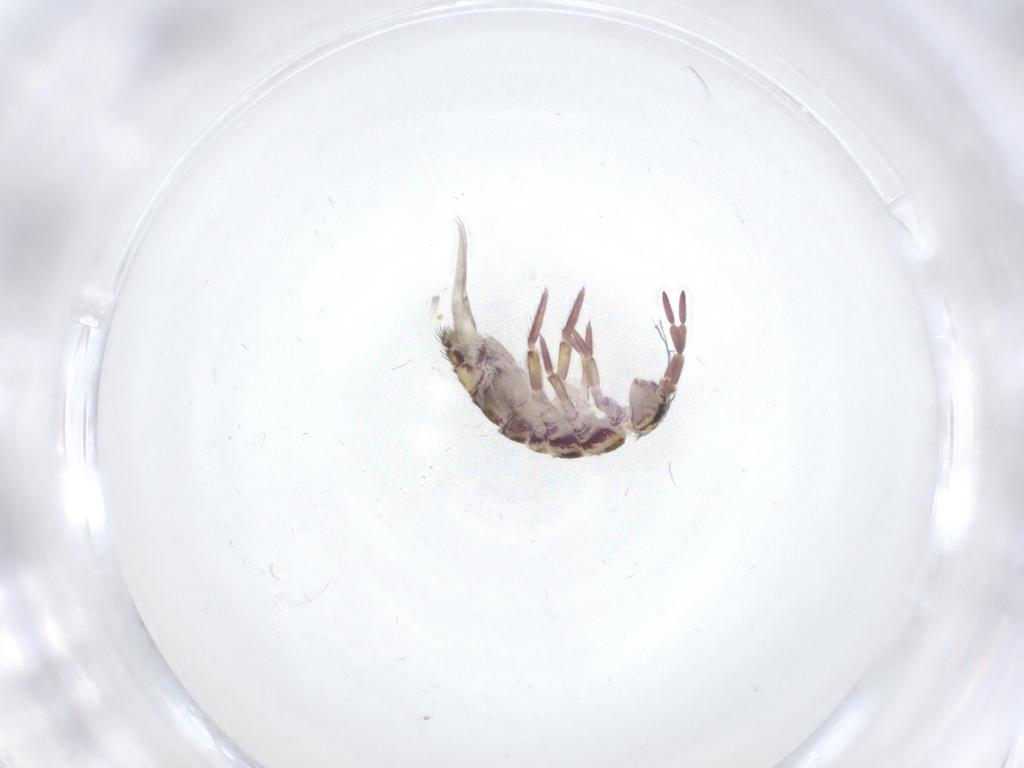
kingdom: Animalia
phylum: Arthropoda
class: Collembola
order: Entomobryomorpha
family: Isotomidae
